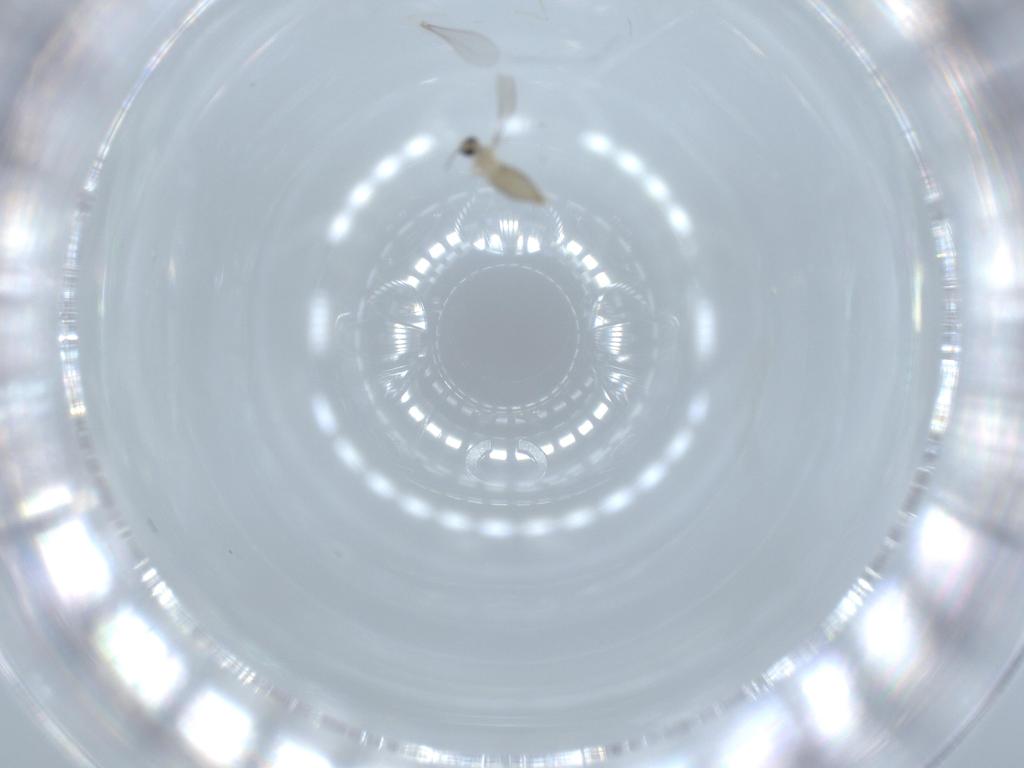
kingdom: Animalia
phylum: Arthropoda
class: Insecta
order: Diptera
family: Cecidomyiidae
